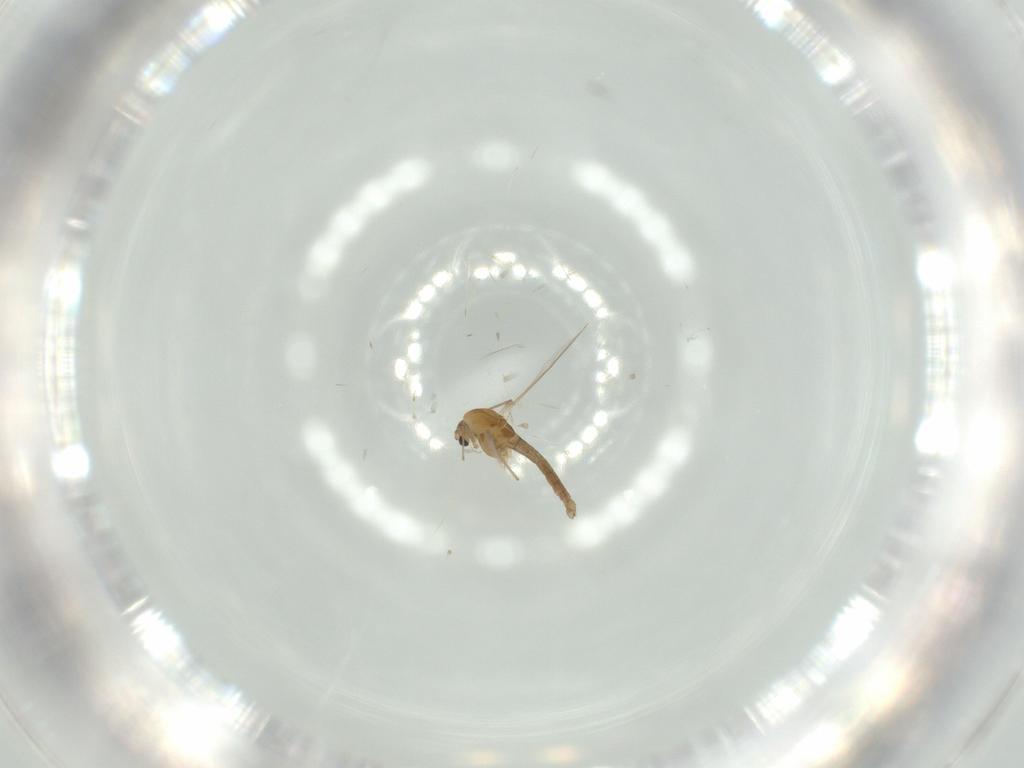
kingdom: Animalia
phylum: Arthropoda
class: Insecta
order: Diptera
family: Chironomidae
